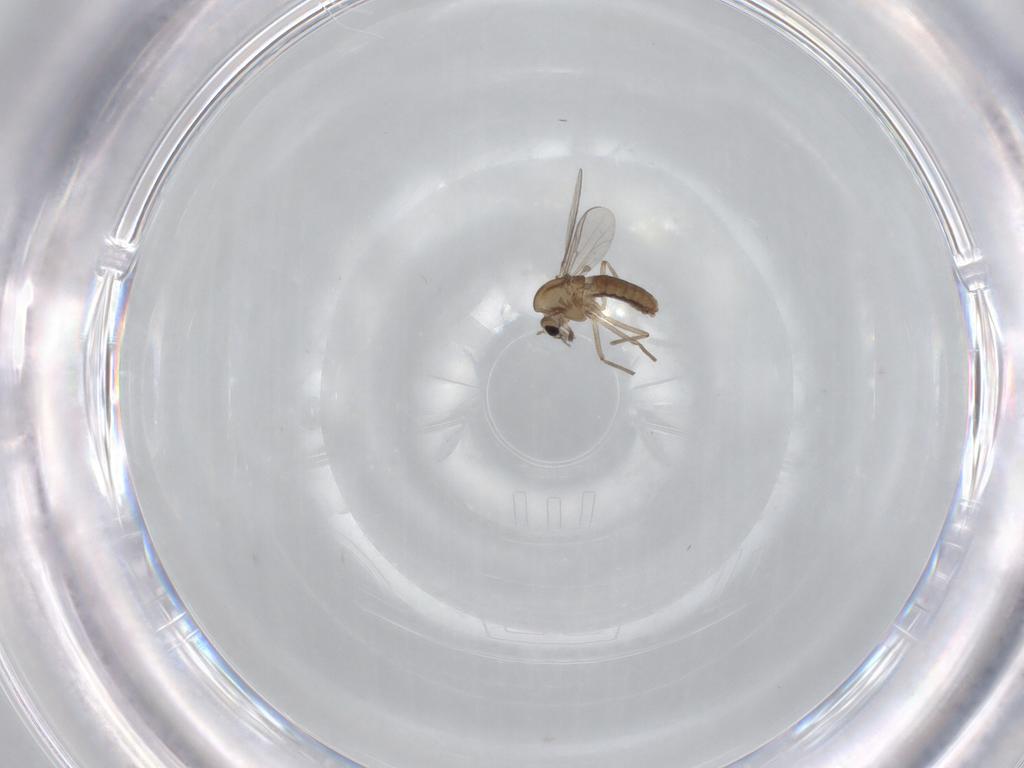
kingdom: Animalia
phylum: Arthropoda
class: Insecta
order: Diptera
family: Chironomidae
